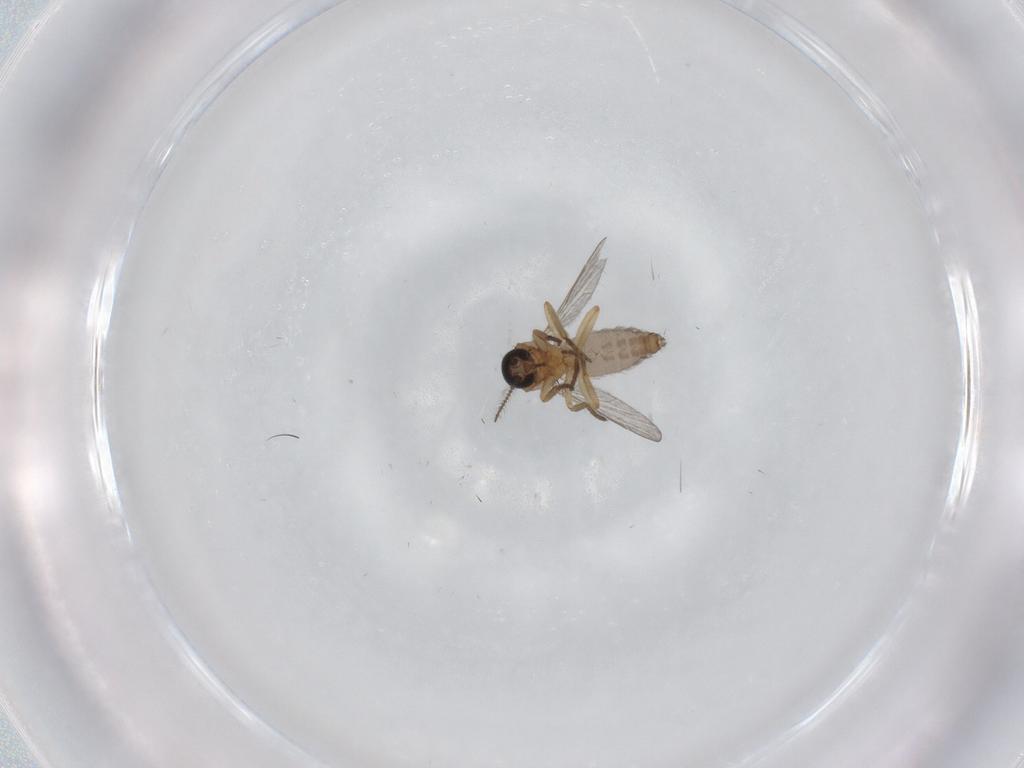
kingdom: Animalia
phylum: Arthropoda
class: Insecta
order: Diptera
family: Ceratopogonidae
